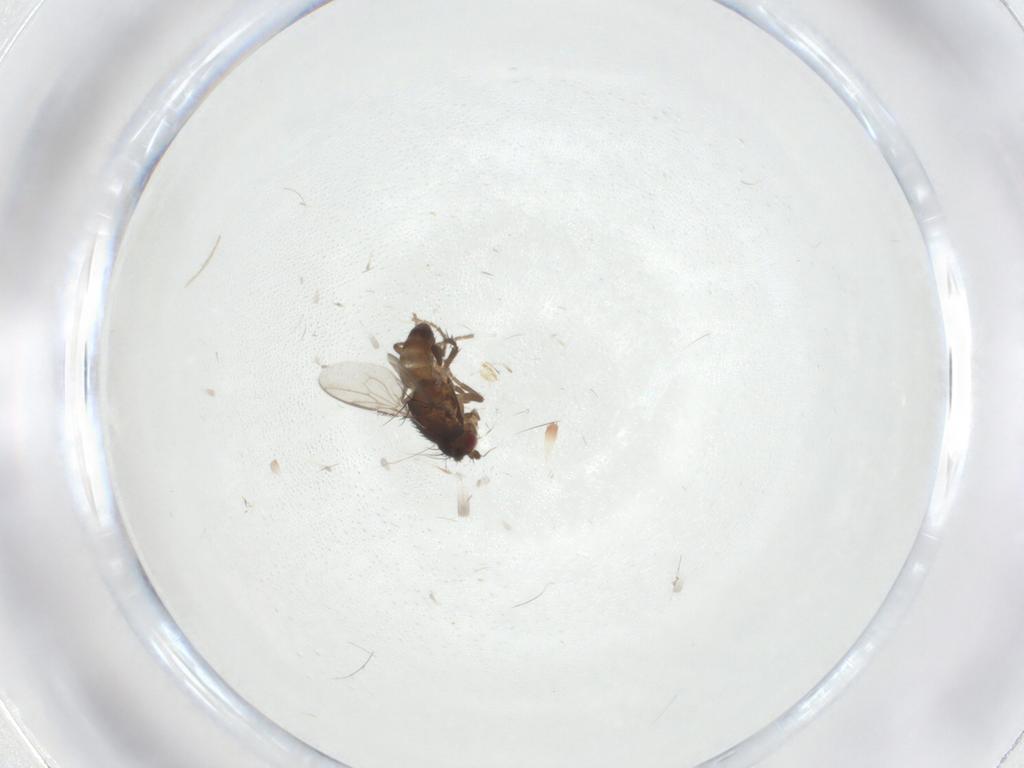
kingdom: Animalia
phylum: Arthropoda
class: Insecta
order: Diptera
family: Sphaeroceridae
